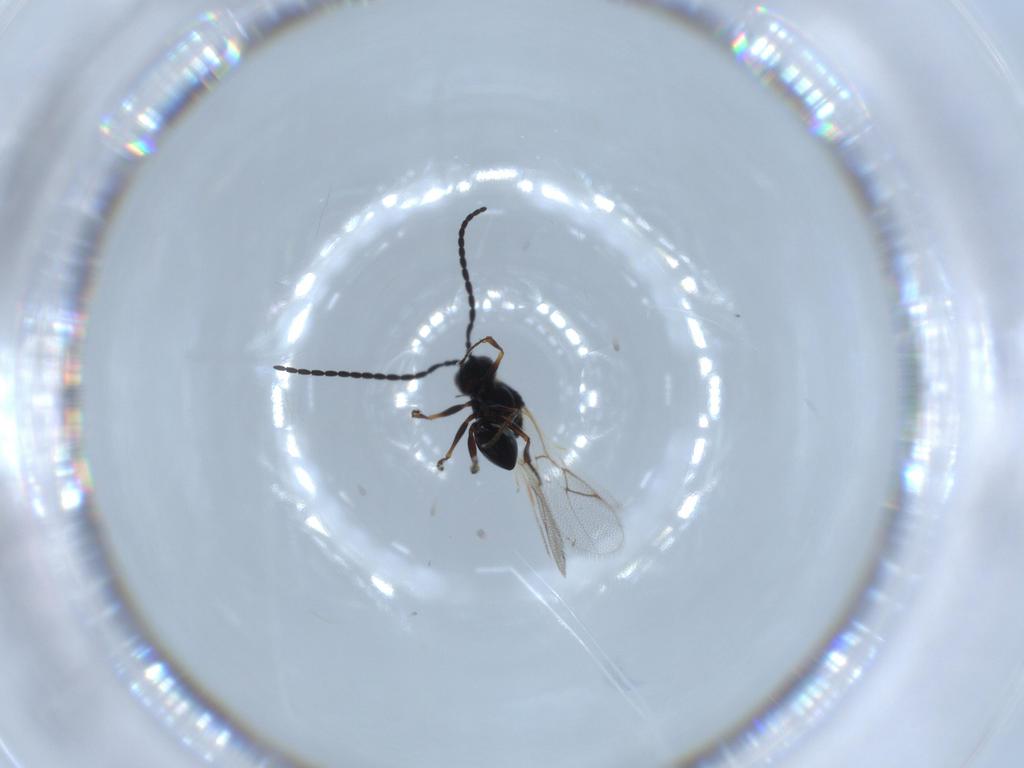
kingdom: Animalia
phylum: Arthropoda
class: Insecta
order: Hymenoptera
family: Figitidae
